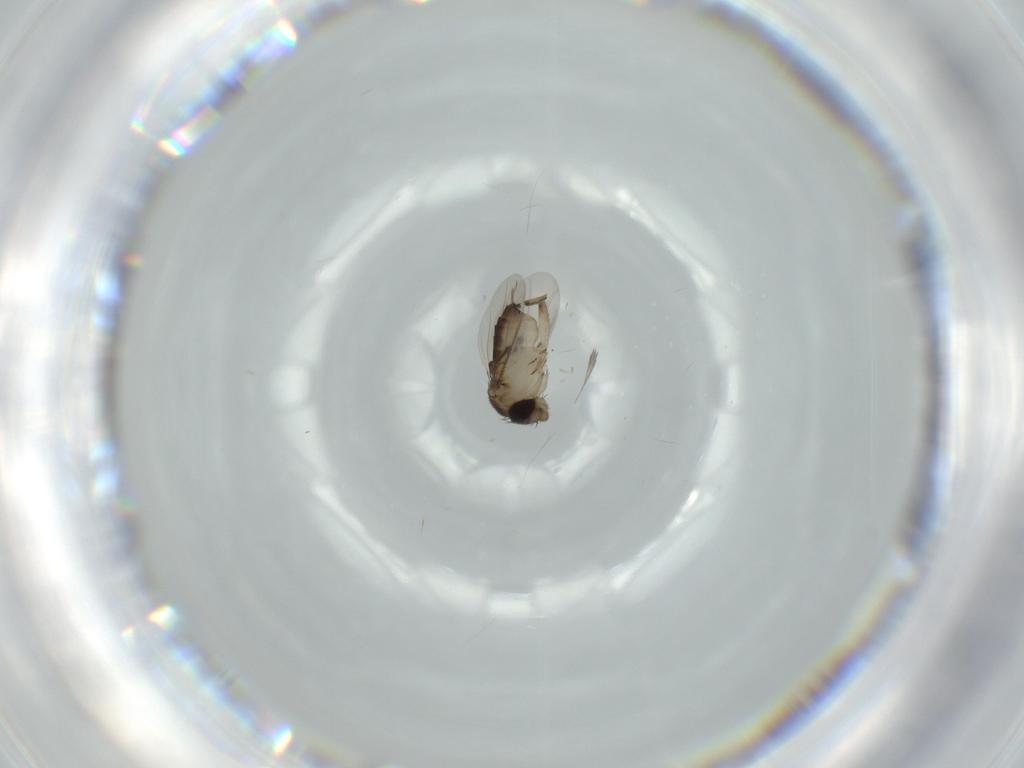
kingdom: Animalia
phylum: Arthropoda
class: Insecta
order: Diptera
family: Phoridae
